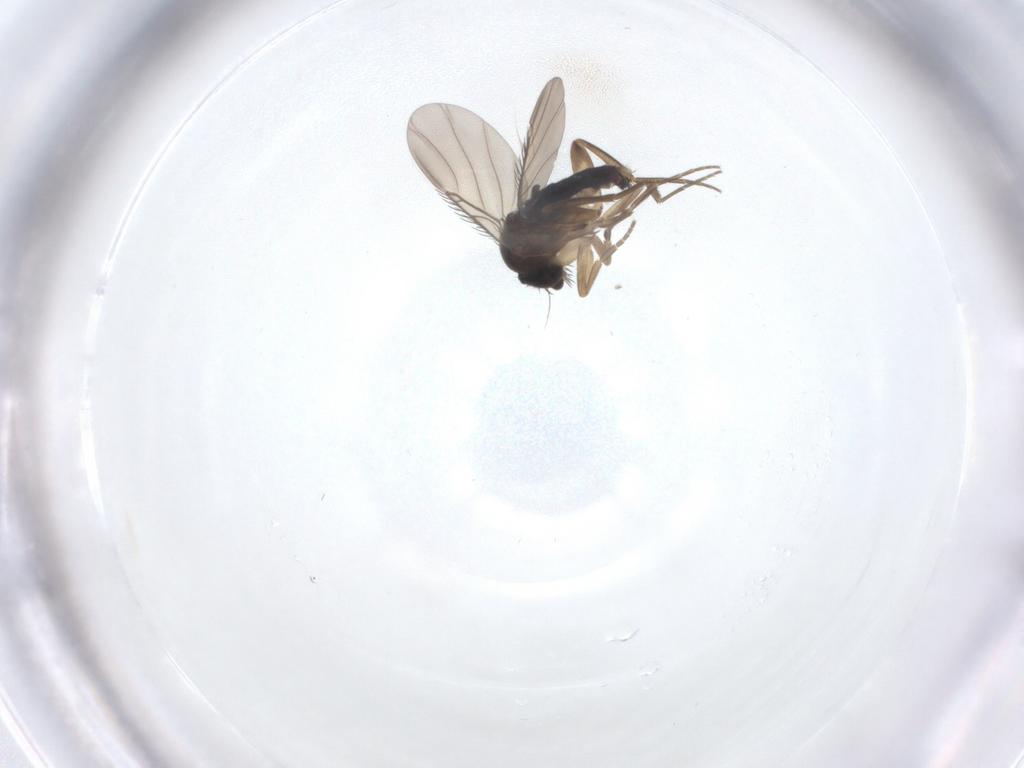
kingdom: Animalia
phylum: Arthropoda
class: Insecta
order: Diptera
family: Phoridae
